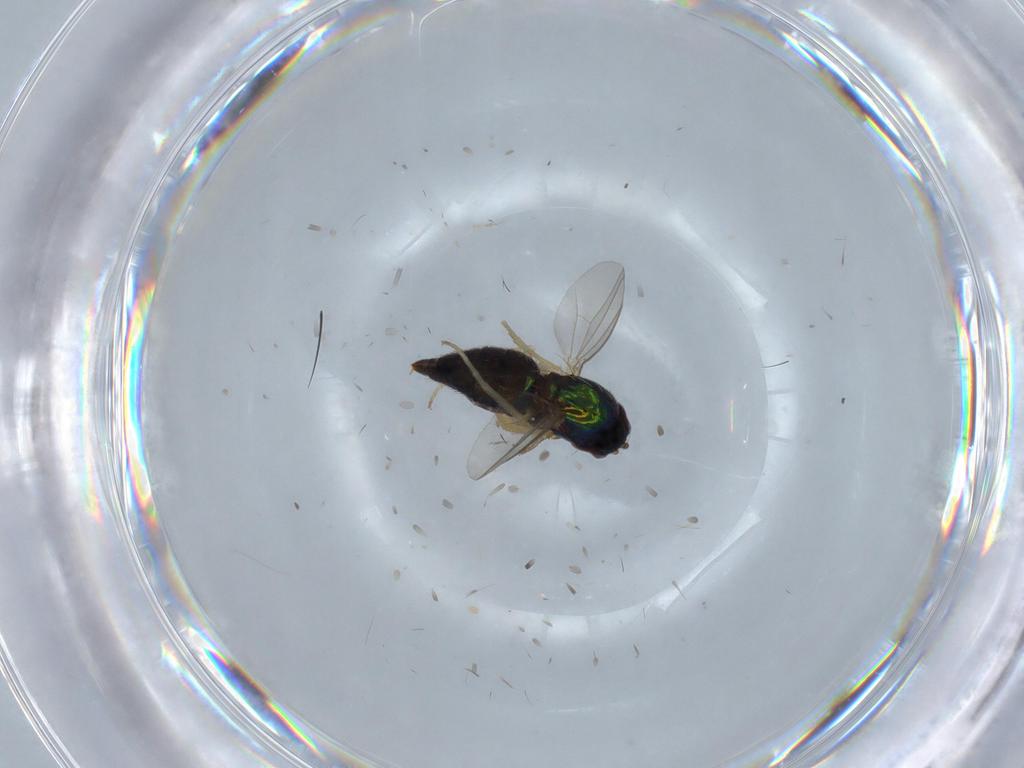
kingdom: Animalia
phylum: Arthropoda
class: Insecta
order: Diptera
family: Dolichopodidae
